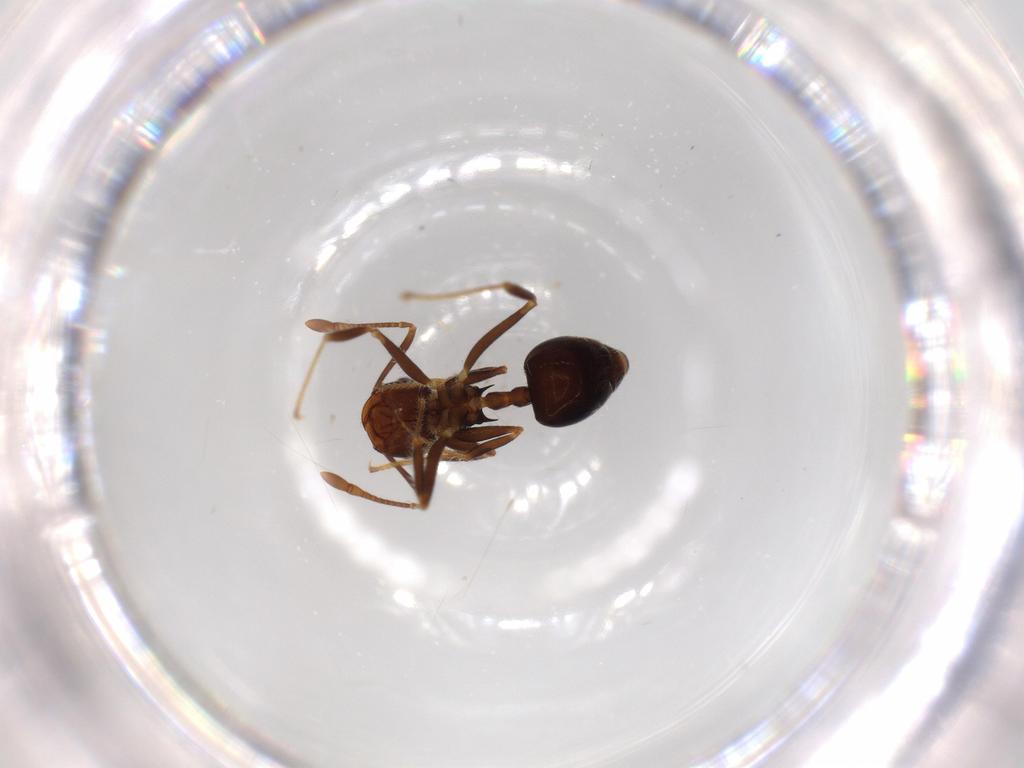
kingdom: Animalia
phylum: Arthropoda
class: Insecta
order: Hymenoptera
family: Formicidae
